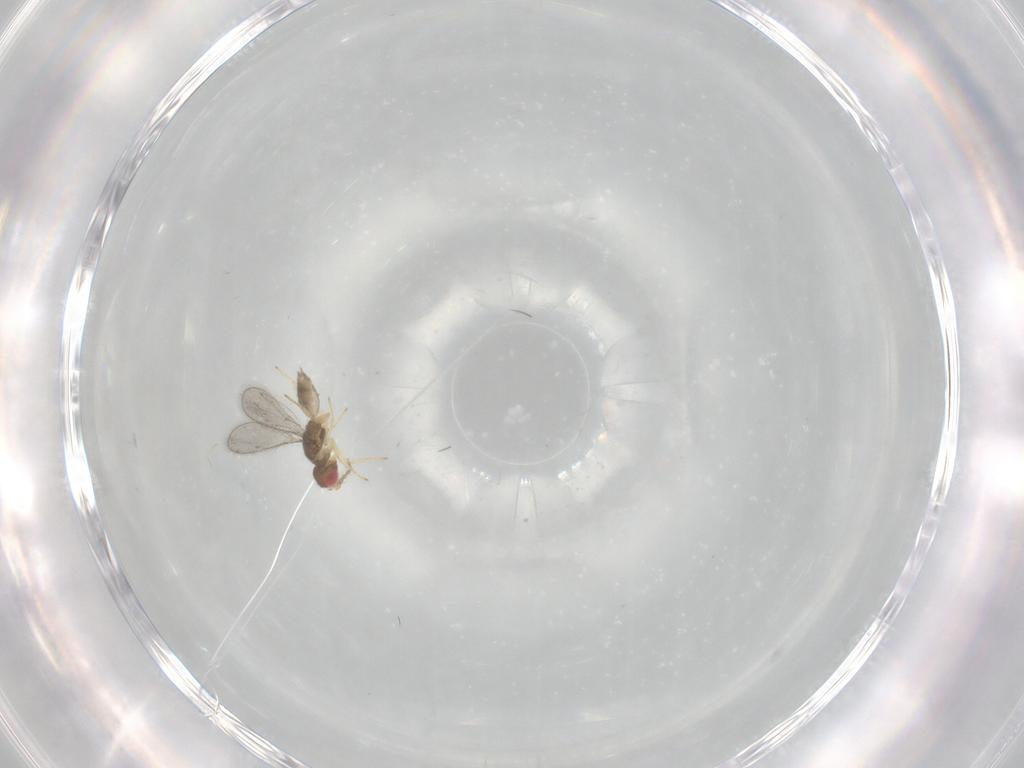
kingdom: Animalia
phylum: Arthropoda
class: Insecta
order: Hymenoptera
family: Eulophidae
